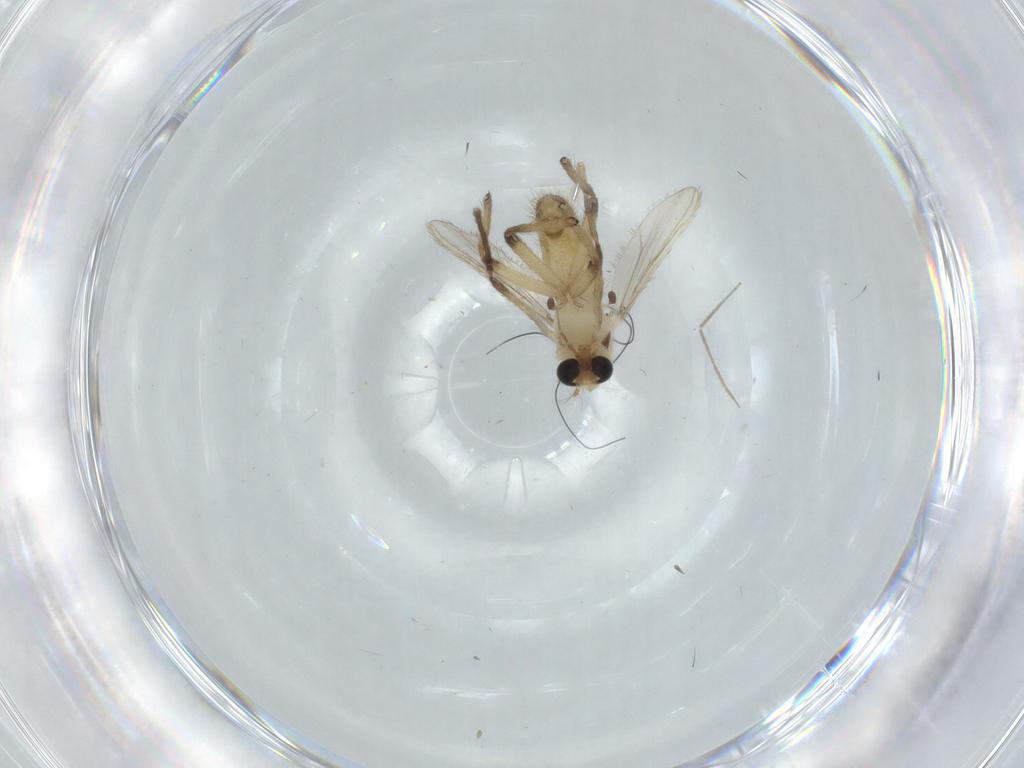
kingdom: Animalia
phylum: Arthropoda
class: Insecta
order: Diptera
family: Chironomidae
